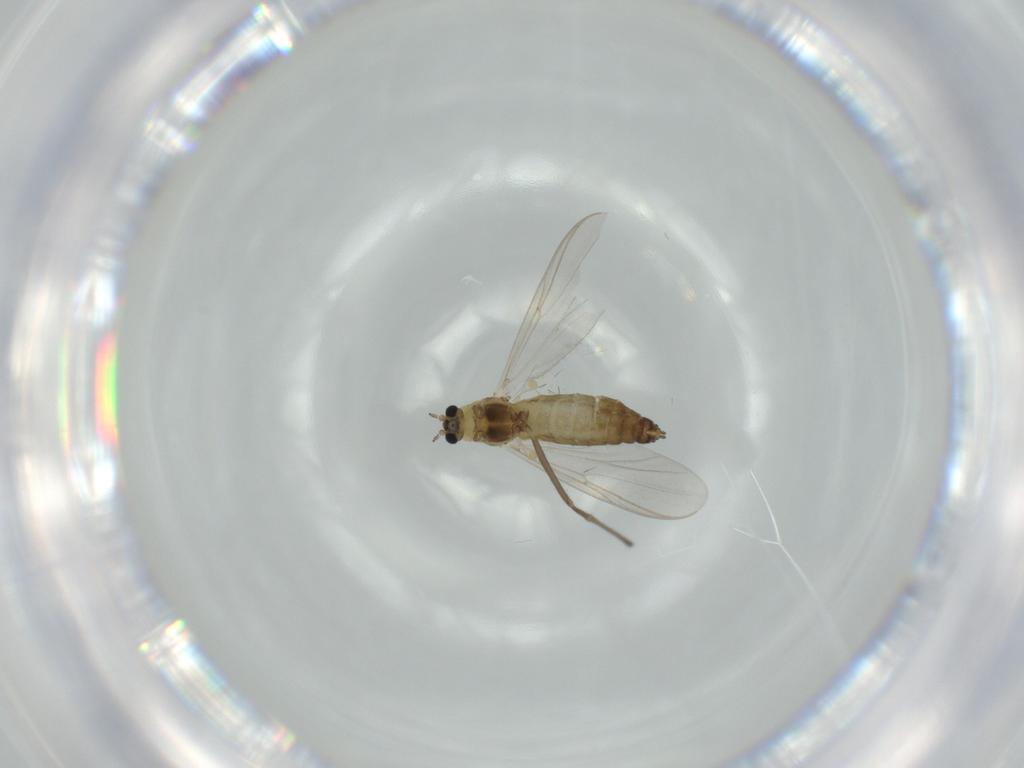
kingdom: Animalia
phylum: Arthropoda
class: Insecta
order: Diptera
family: Chironomidae
